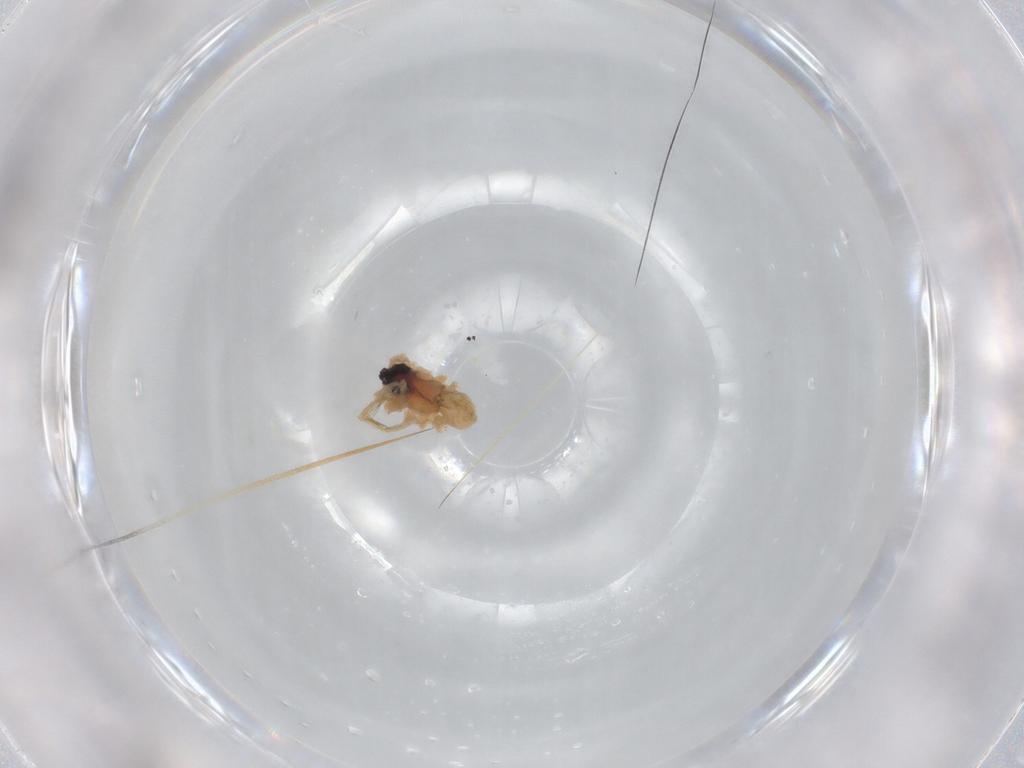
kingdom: Animalia
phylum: Arthropoda
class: Arachnida
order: Araneae
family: Lycosidae
